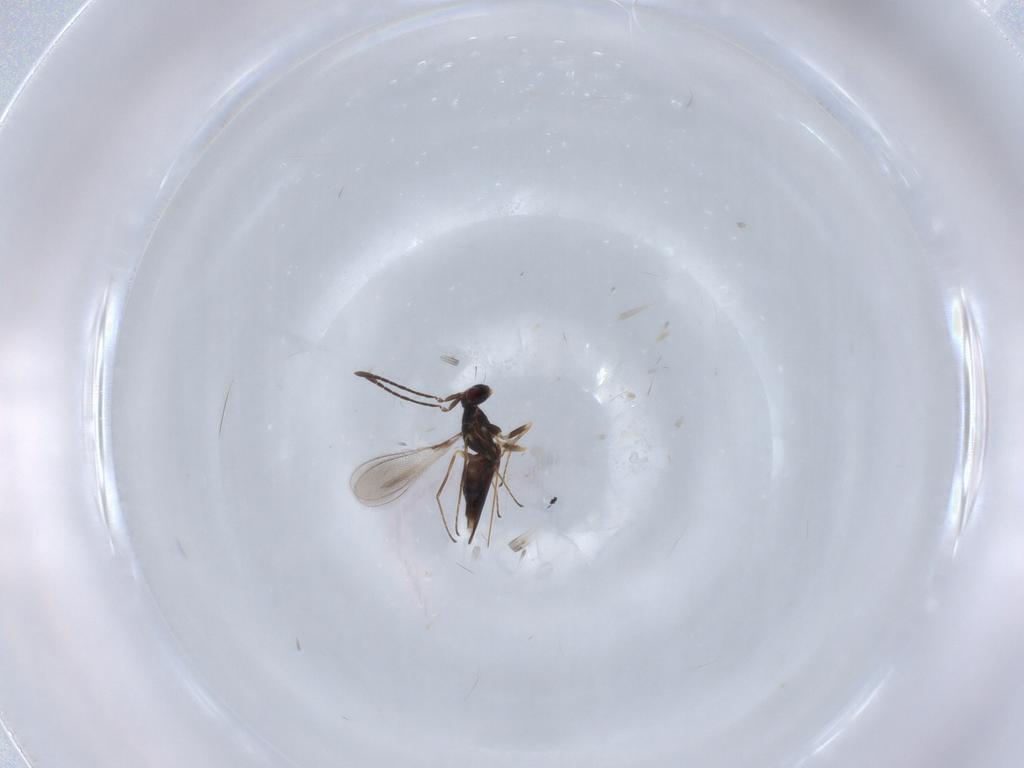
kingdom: Animalia
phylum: Arthropoda
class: Insecta
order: Hymenoptera
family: Mymaridae
